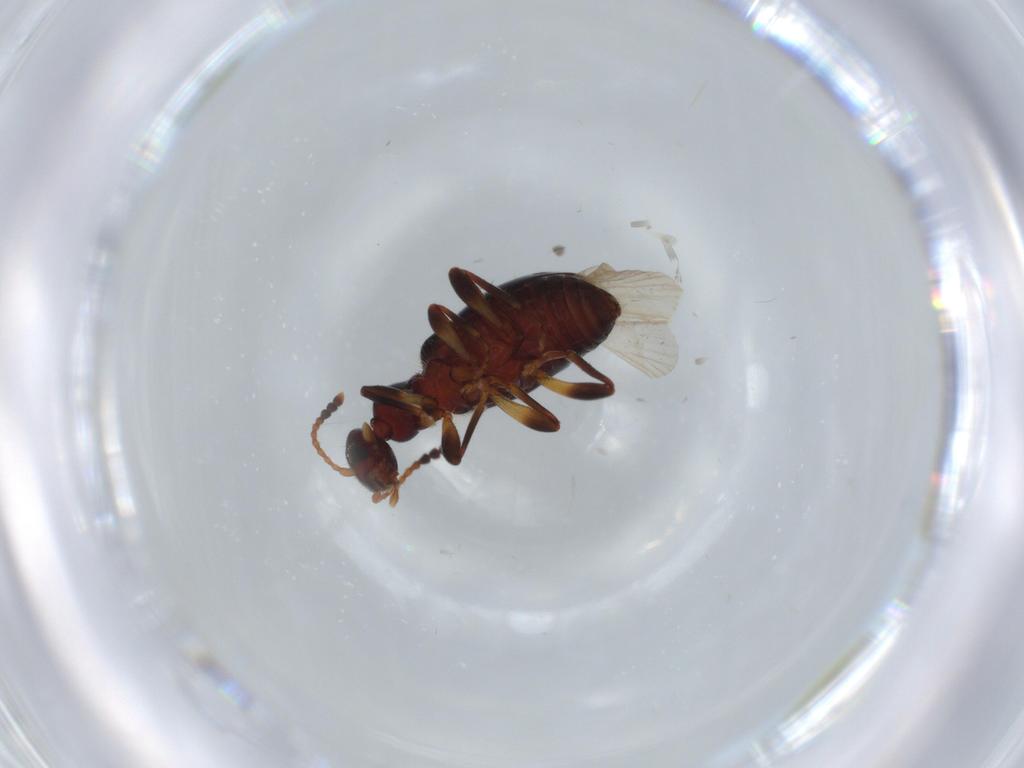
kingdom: Animalia
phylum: Arthropoda
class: Insecta
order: Coleoptera
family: Anthicidae
